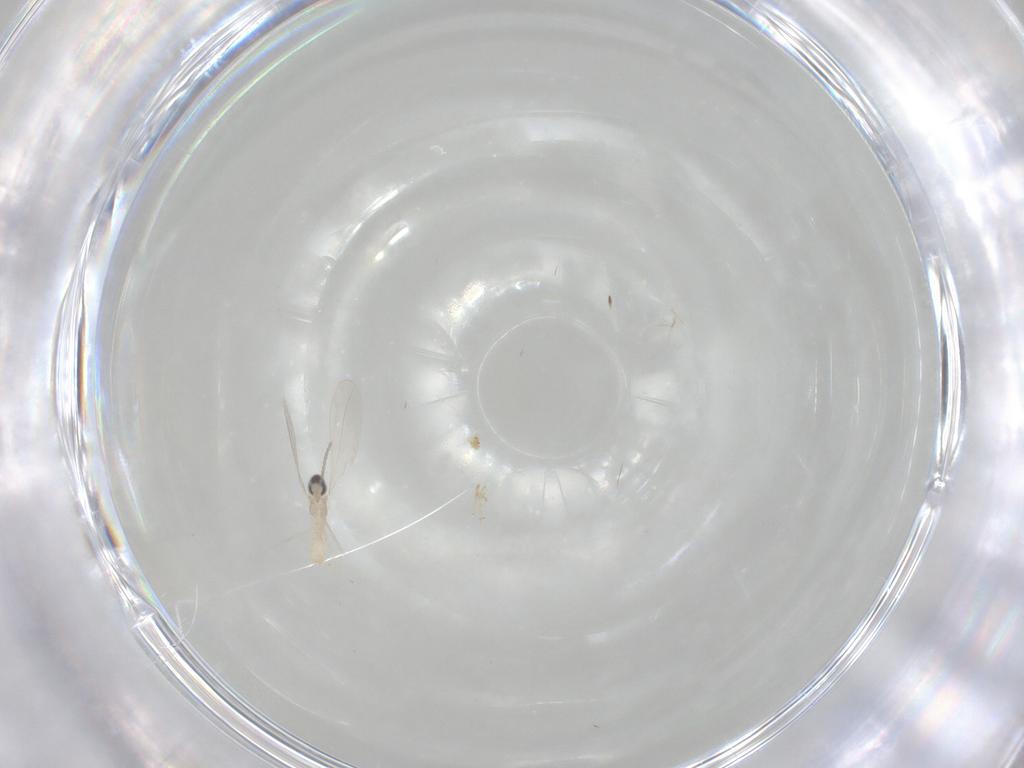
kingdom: Animalia
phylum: Arthropoda
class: Insecta
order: Diptera
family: Cecidomyiidae
